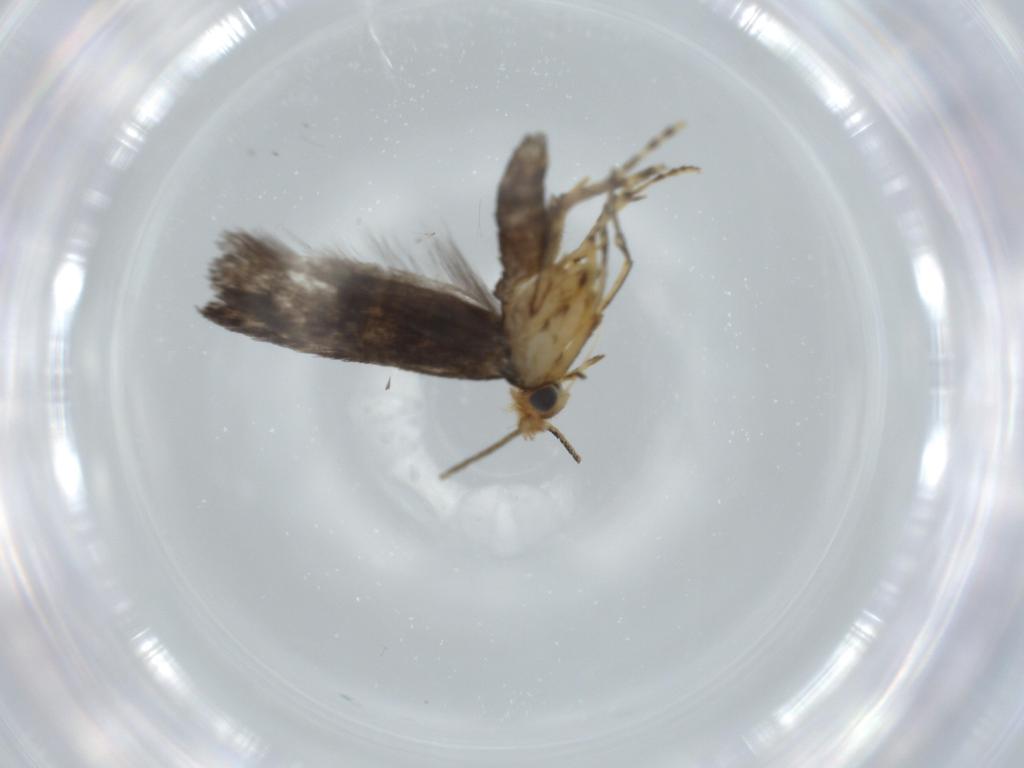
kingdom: Animalia
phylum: Arthropoda
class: Insecta
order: Lepidoptera
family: Argyresthiidae
